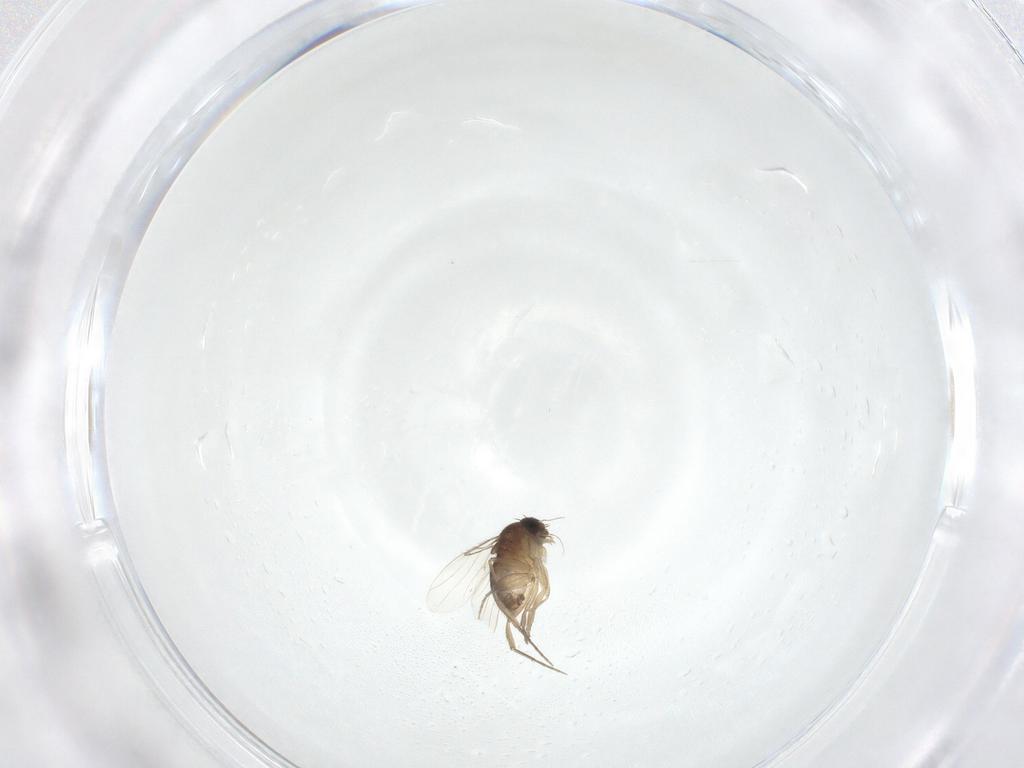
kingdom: Animalia
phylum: Arthropoda
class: Insecta
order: Diptera
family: Phoridae
